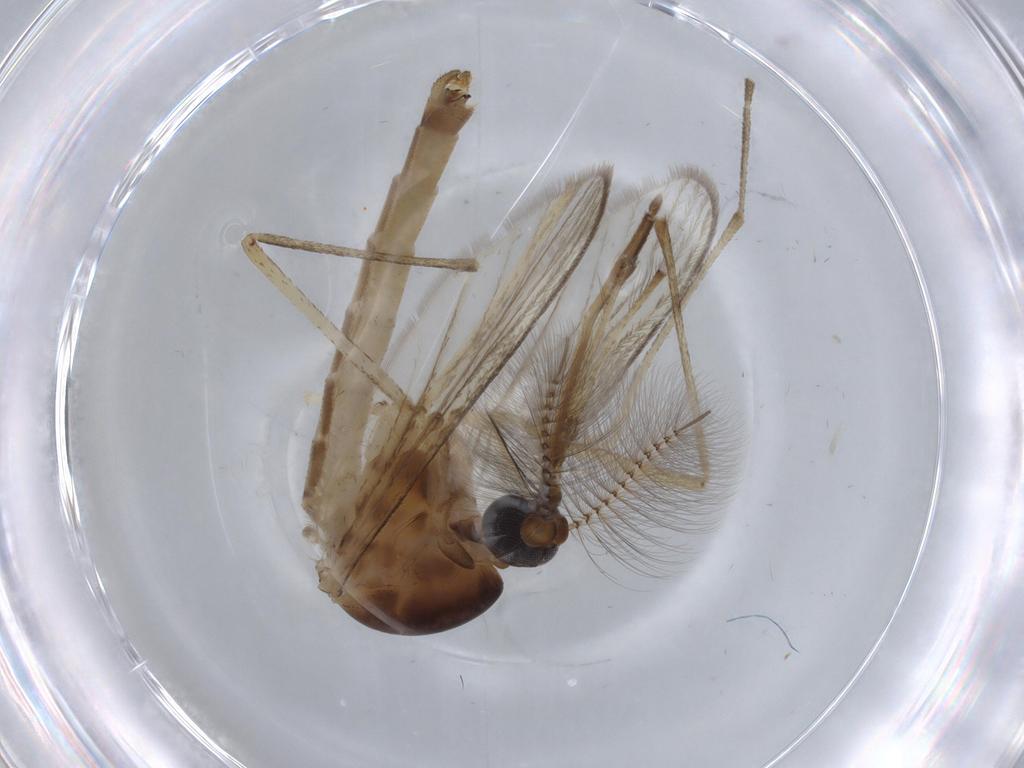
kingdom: Animalia
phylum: Arthropoda
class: Insecta
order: Diptera
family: Culicidae
